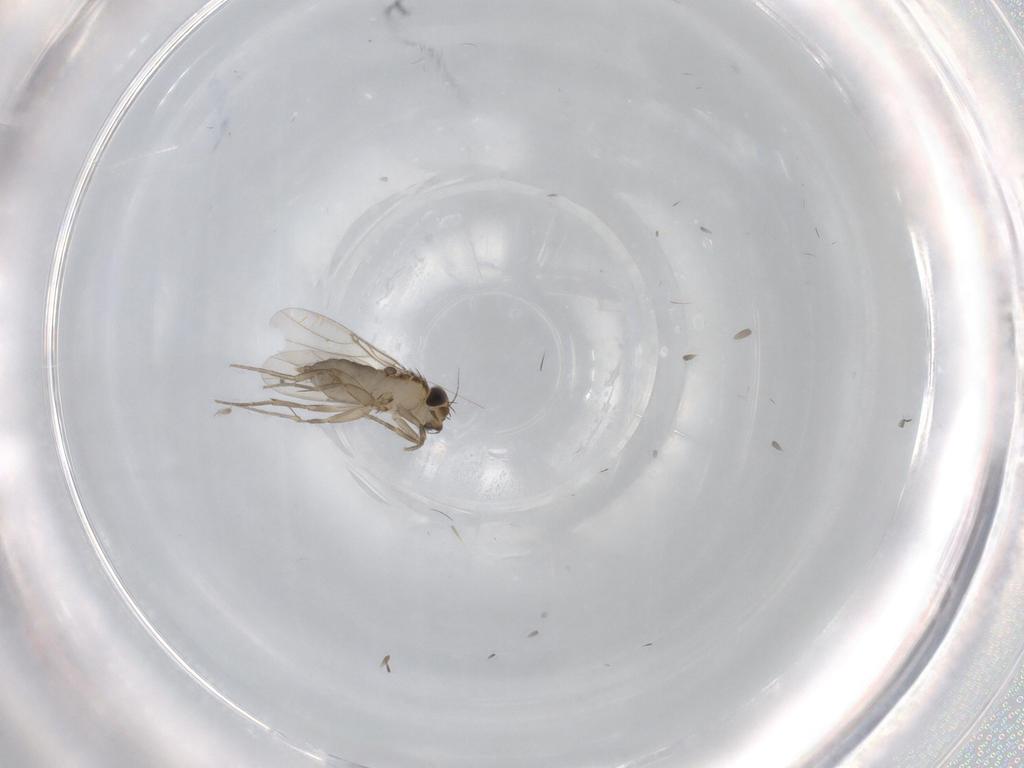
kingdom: Animalia
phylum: Arthropoda
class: Insecta
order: Diptera
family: Phoridae
